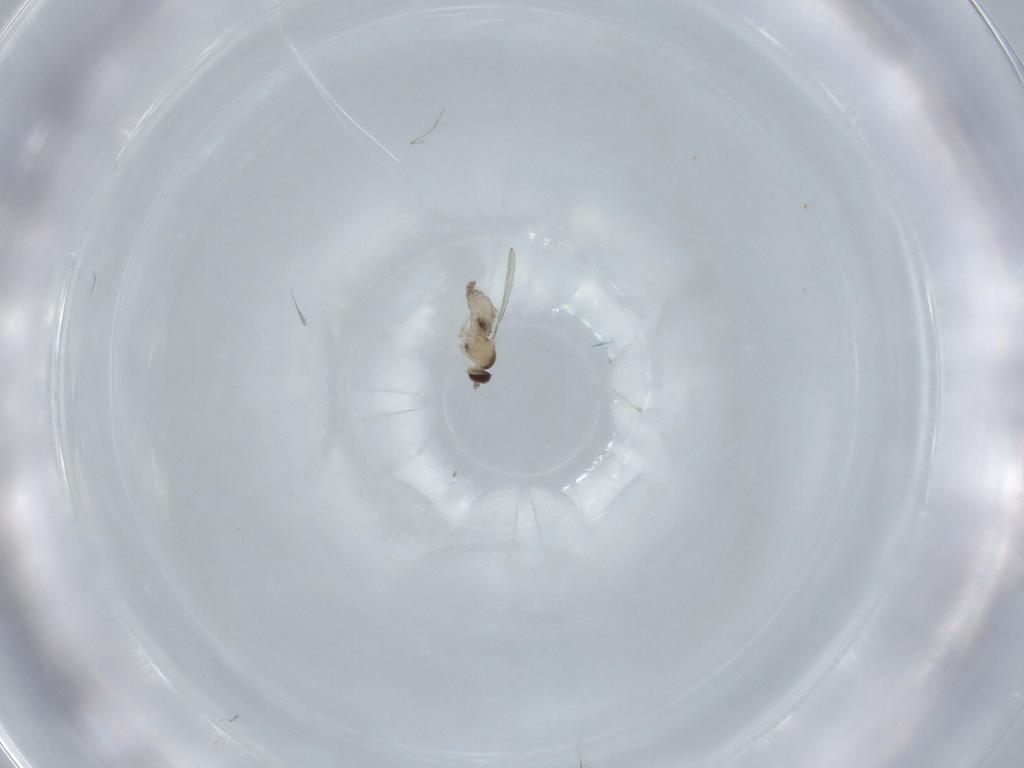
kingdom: Animalia
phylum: Arthropoda
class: Insecta
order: Diptera
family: Cecidomyiidae
